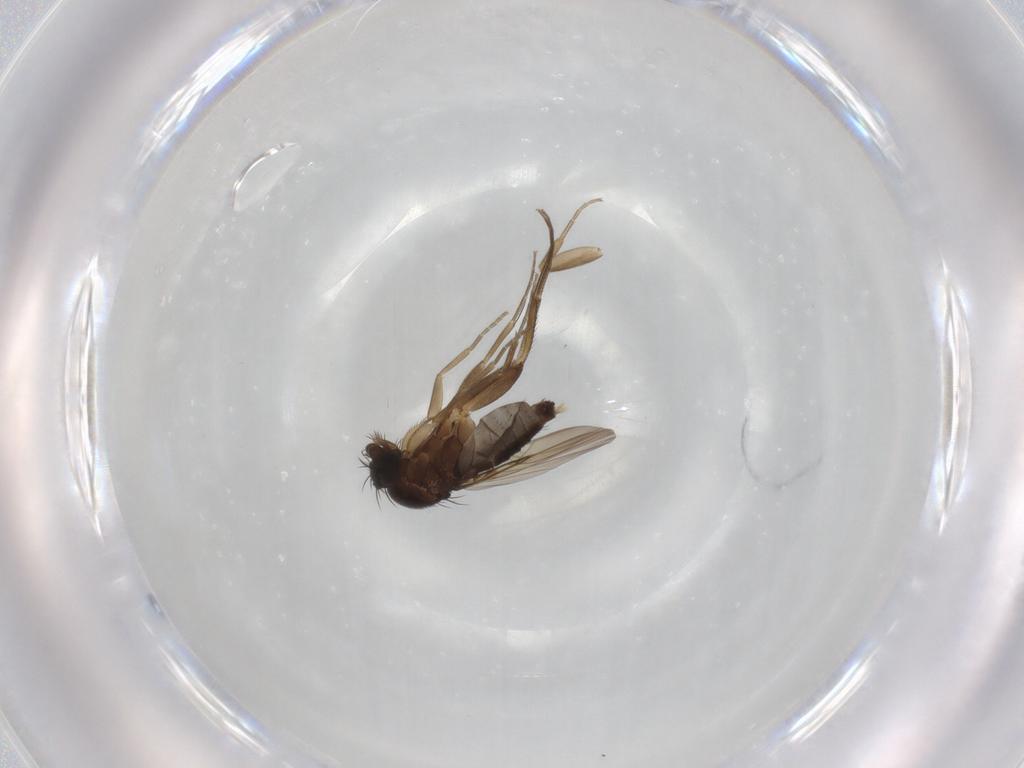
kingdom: Animalia
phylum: Arthropoda
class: Insecta
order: Diptera
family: Phoridae
